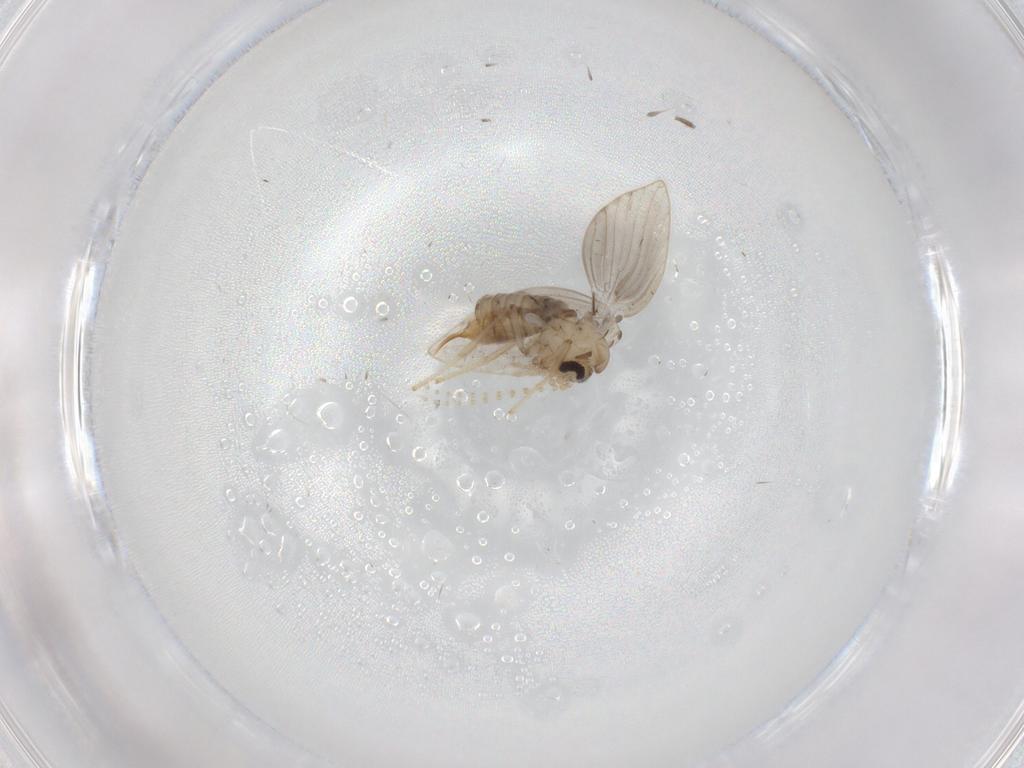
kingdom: Animalia
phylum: Arthropoda
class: Insecta
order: Diptera
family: Psychodidae
